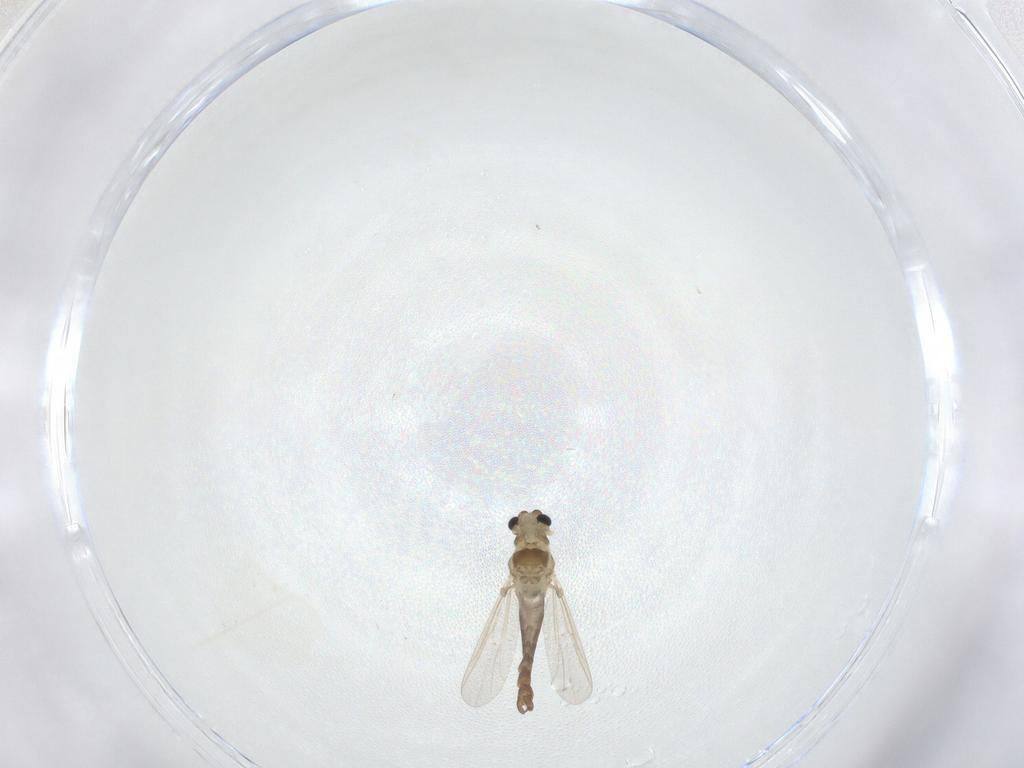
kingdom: Animalia
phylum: Arthropoda
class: Insecta
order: Diptera
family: Chironomidae
